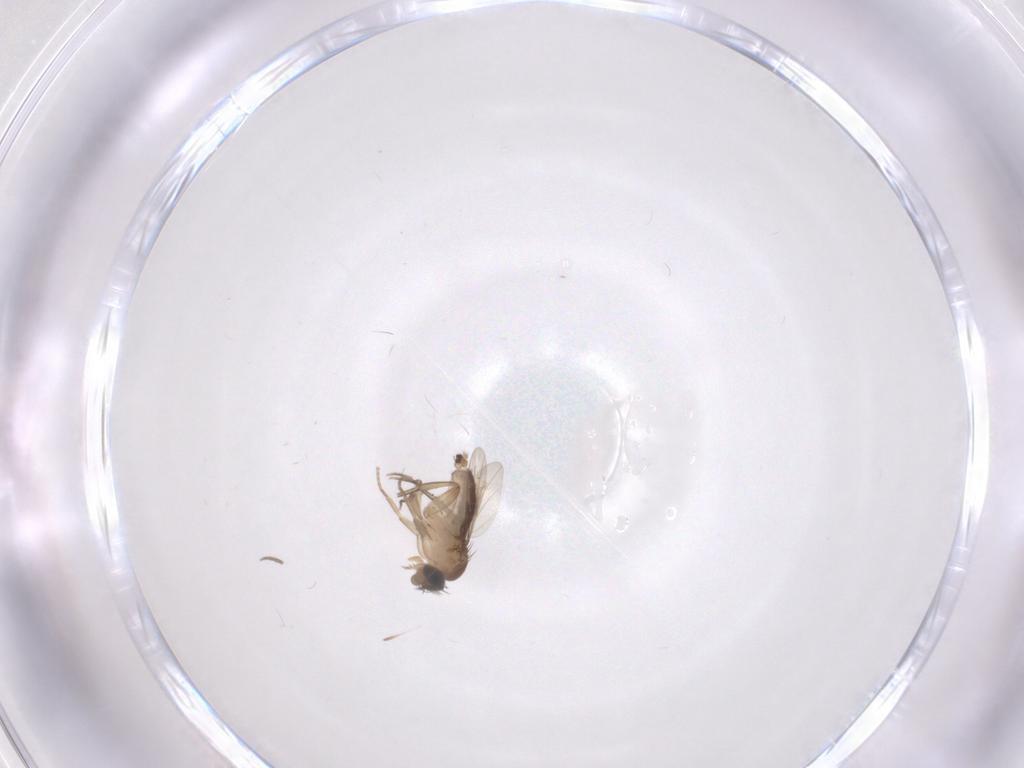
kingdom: Animalia
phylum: Arthropoda
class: Insecta
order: Diptera
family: Phoridae
